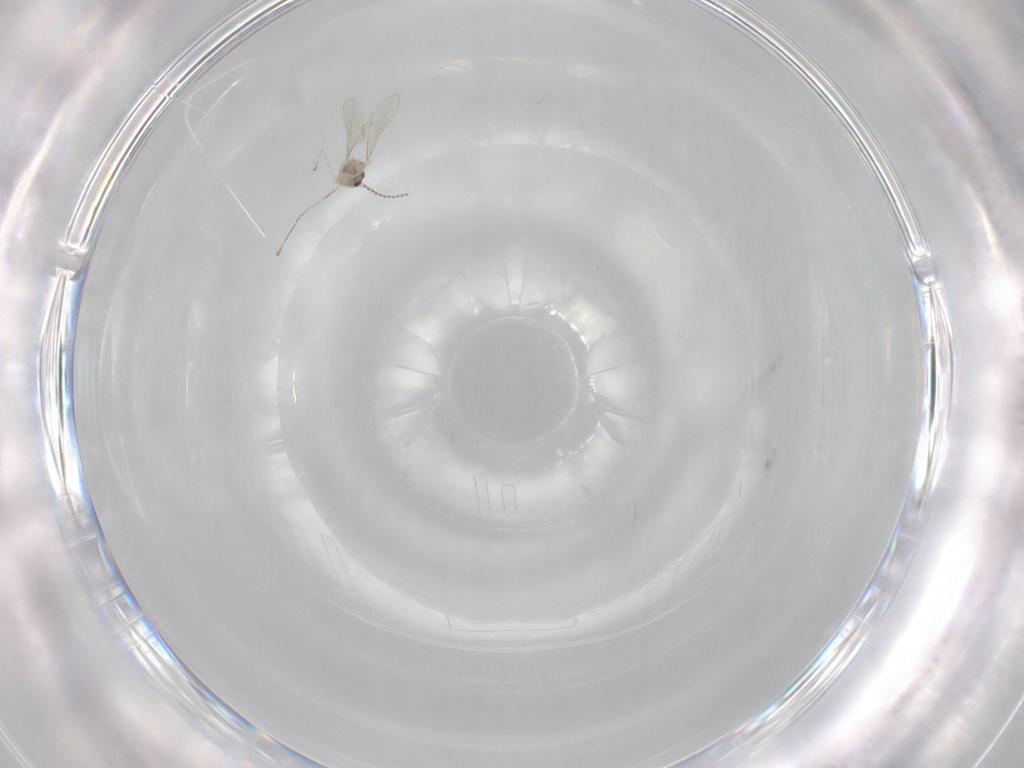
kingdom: Animalia
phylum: Arthropoda
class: Insecta
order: Diptera
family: Cecidomyiidae
